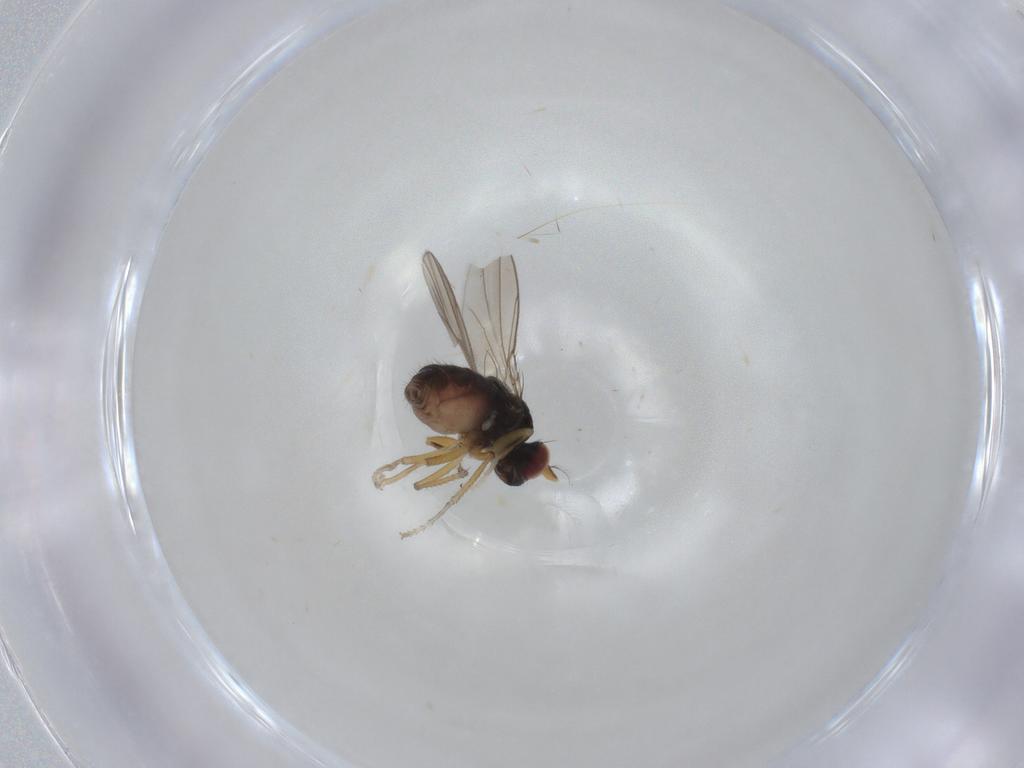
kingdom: Animalia
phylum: Arthropoda
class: Insecta
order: Diptera
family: Ephydridae
